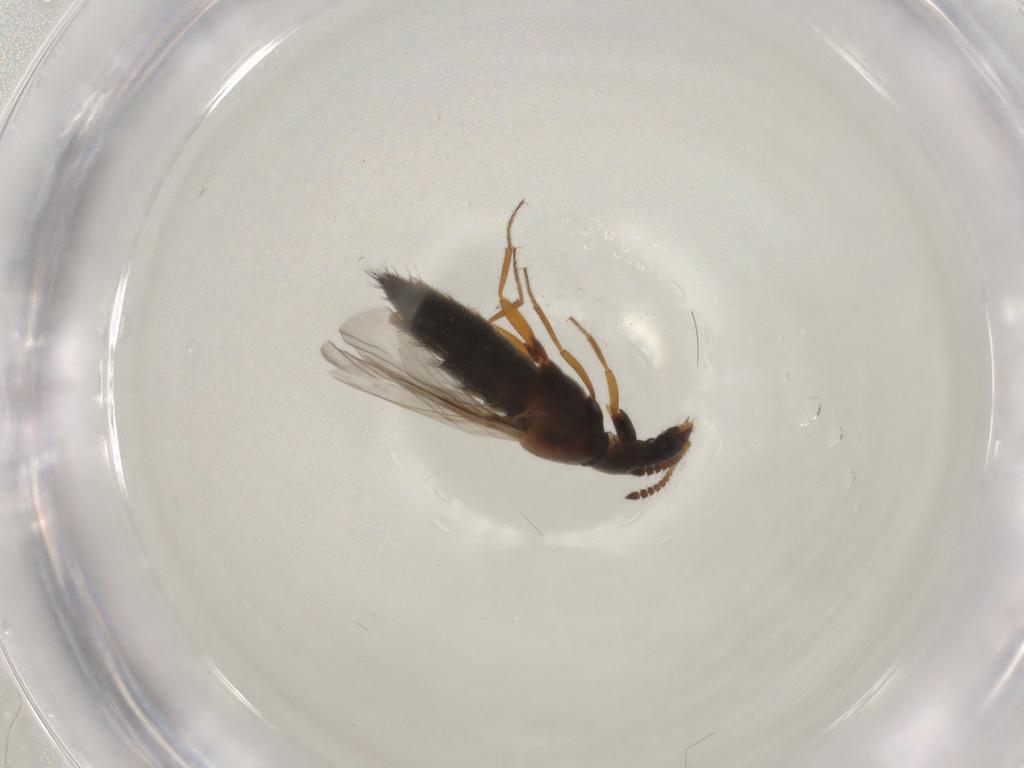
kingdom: Animalia
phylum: Arthropoda
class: Insecta
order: Coleoptera
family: Staphylinidae
